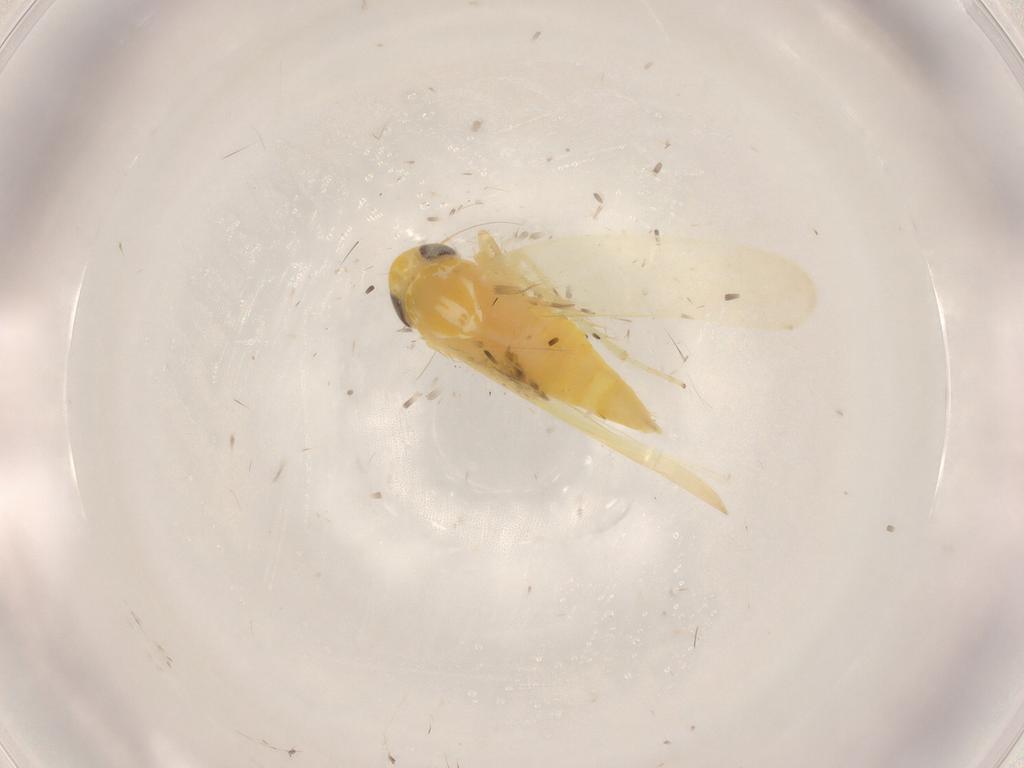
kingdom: Animalia
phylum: Arthropoda
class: Insecta
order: Hemiptera
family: Cicadellidae
